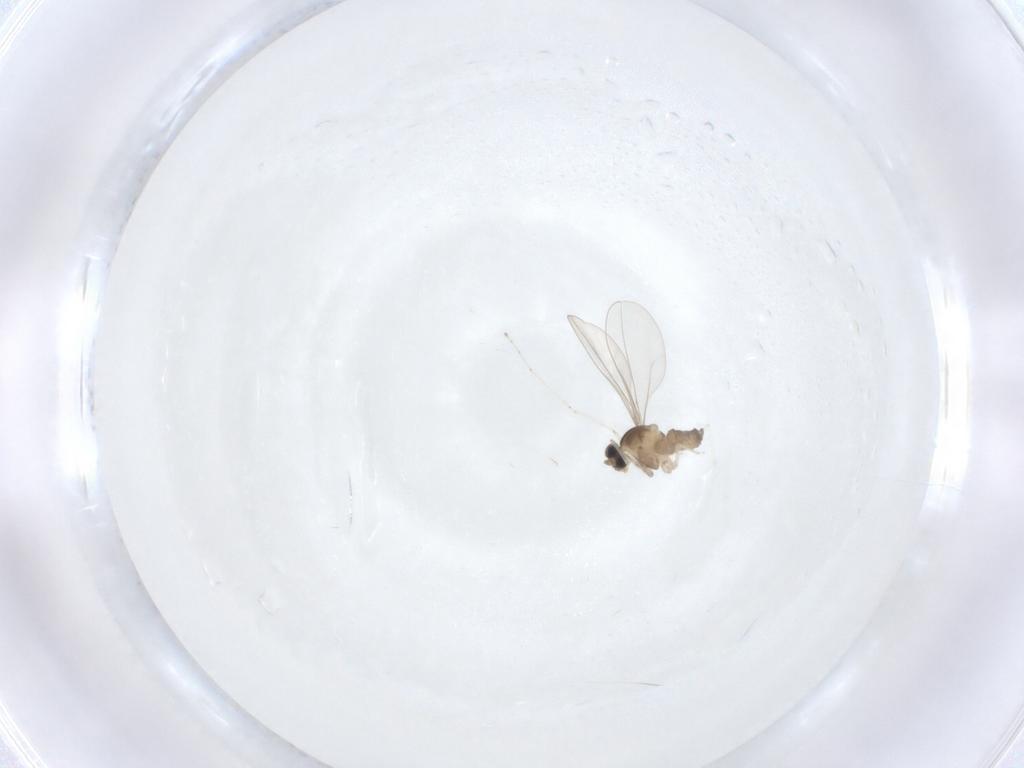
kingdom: Animalia
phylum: Arthropoda
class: Insecta
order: Diptera
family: Cecidomyiidae
